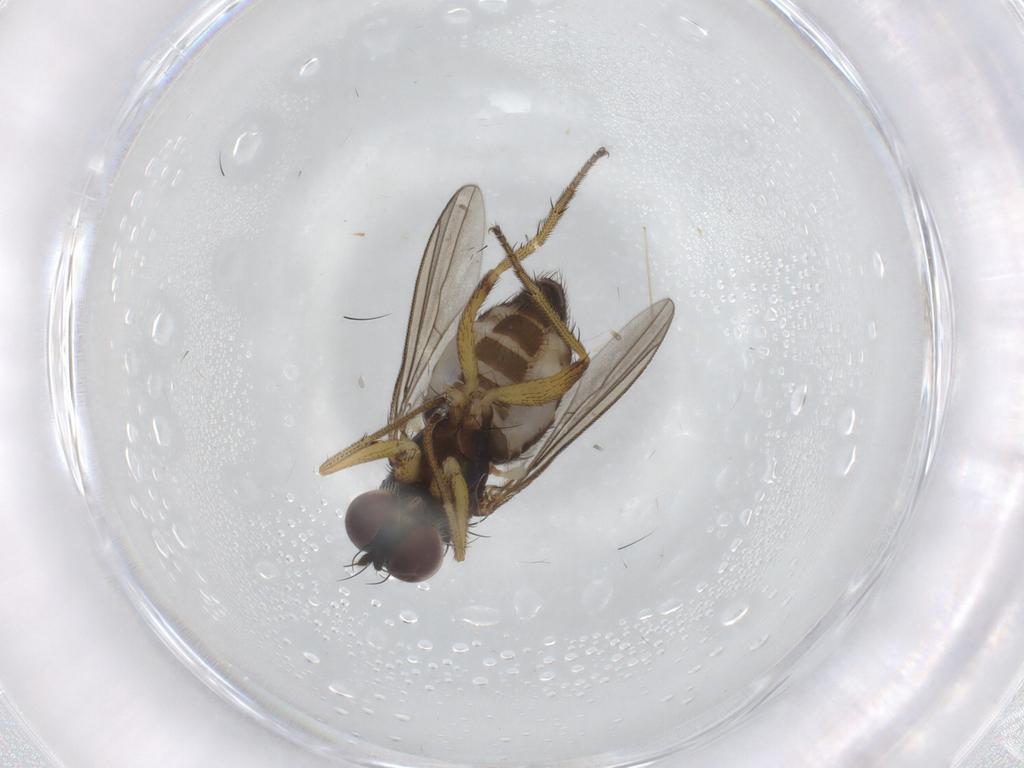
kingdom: Animalia
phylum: Arthropoda
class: Insecta
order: Diptera
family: Dolichopodidae
